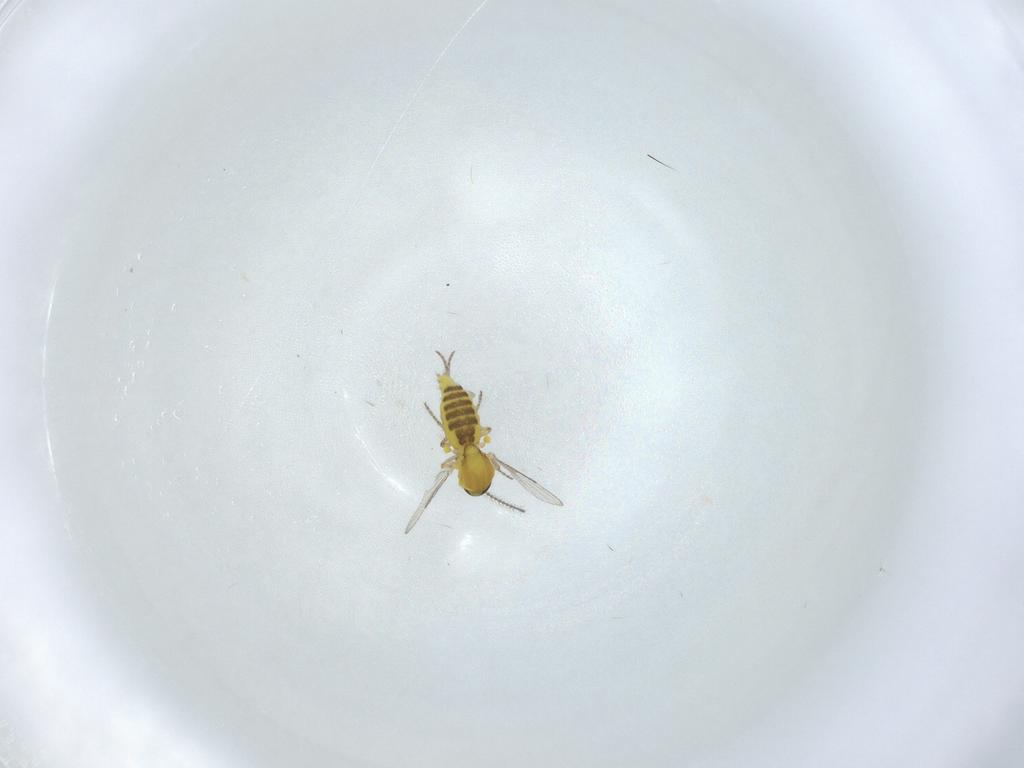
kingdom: Animalia
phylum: Arthropoda
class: Insecta
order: Diptera
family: Ceratopogonidae
